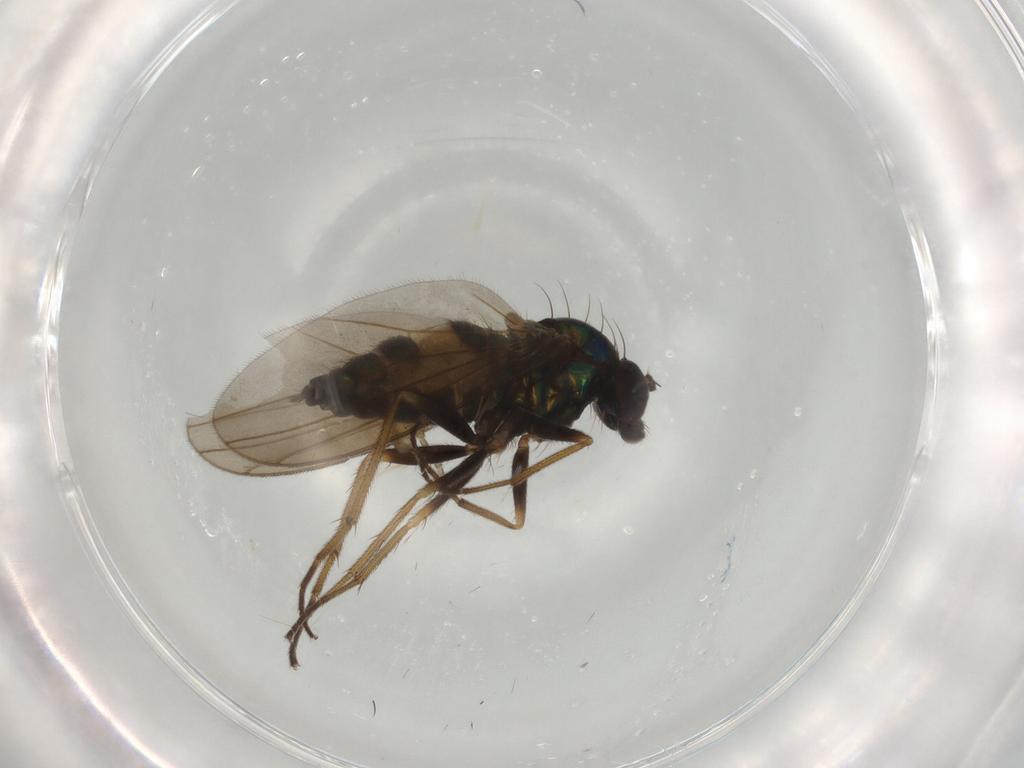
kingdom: Animalia
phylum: Arthropoda
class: Insecta
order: Diptera
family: Dolichopodidae
